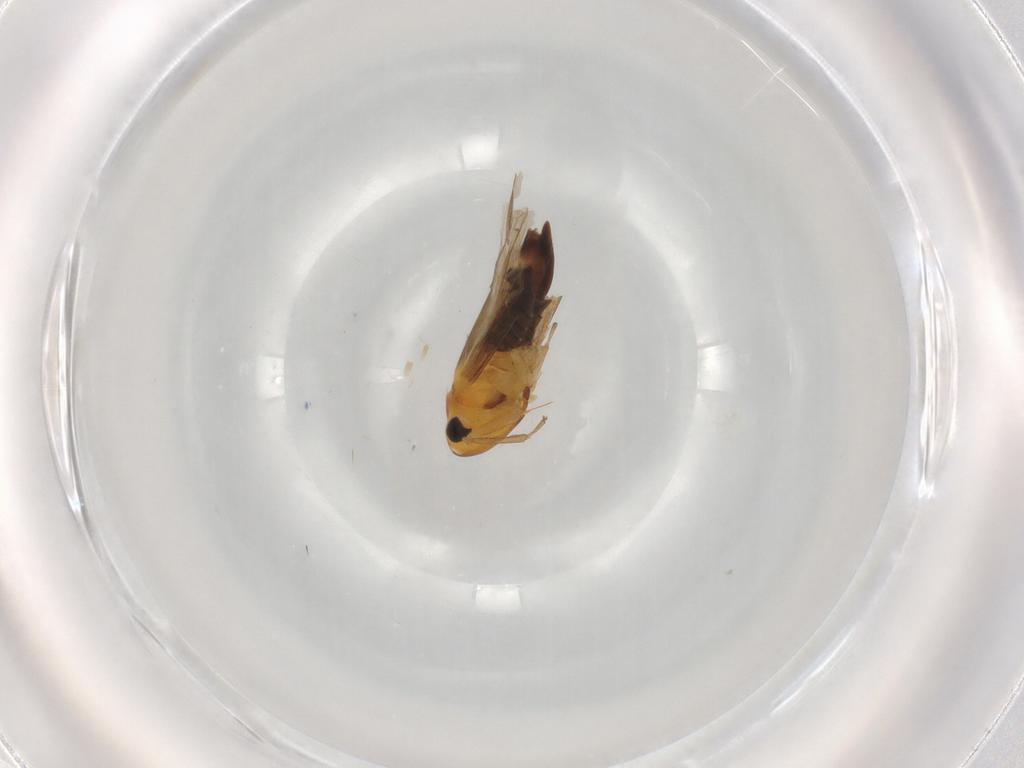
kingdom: Animalia
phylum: Arthropoda
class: Insecta
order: Hemiptera
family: Cicadellidae
